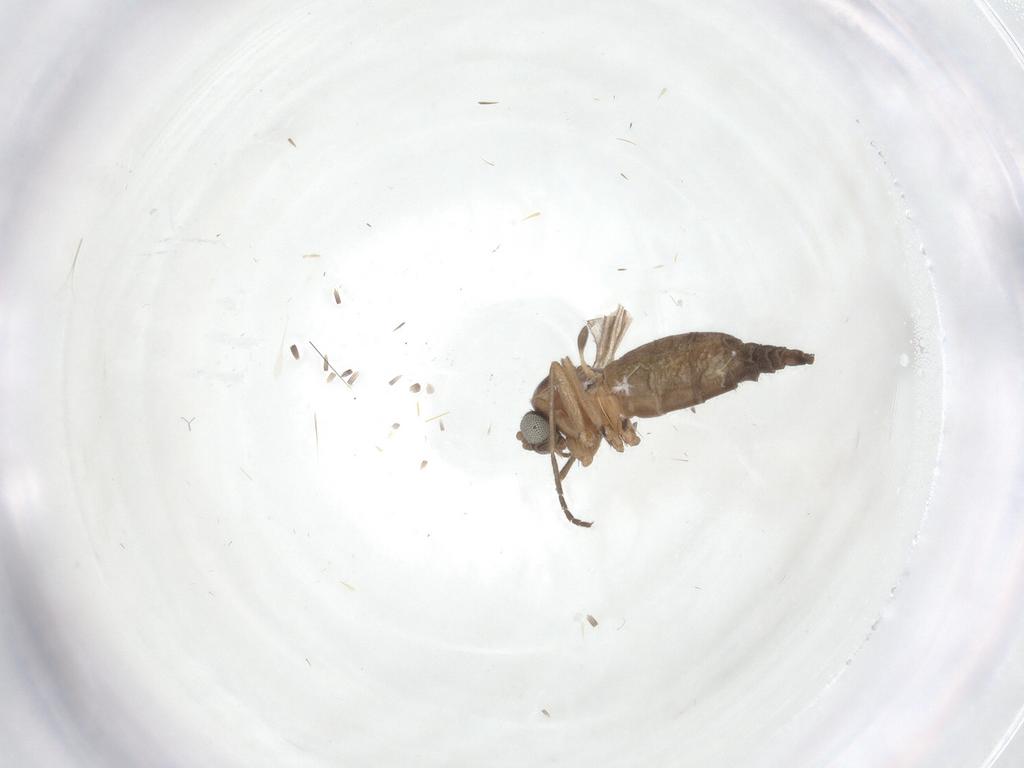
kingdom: Animalia
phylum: Arthropoda
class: Insecta
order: Diptera
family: Sciaridae
